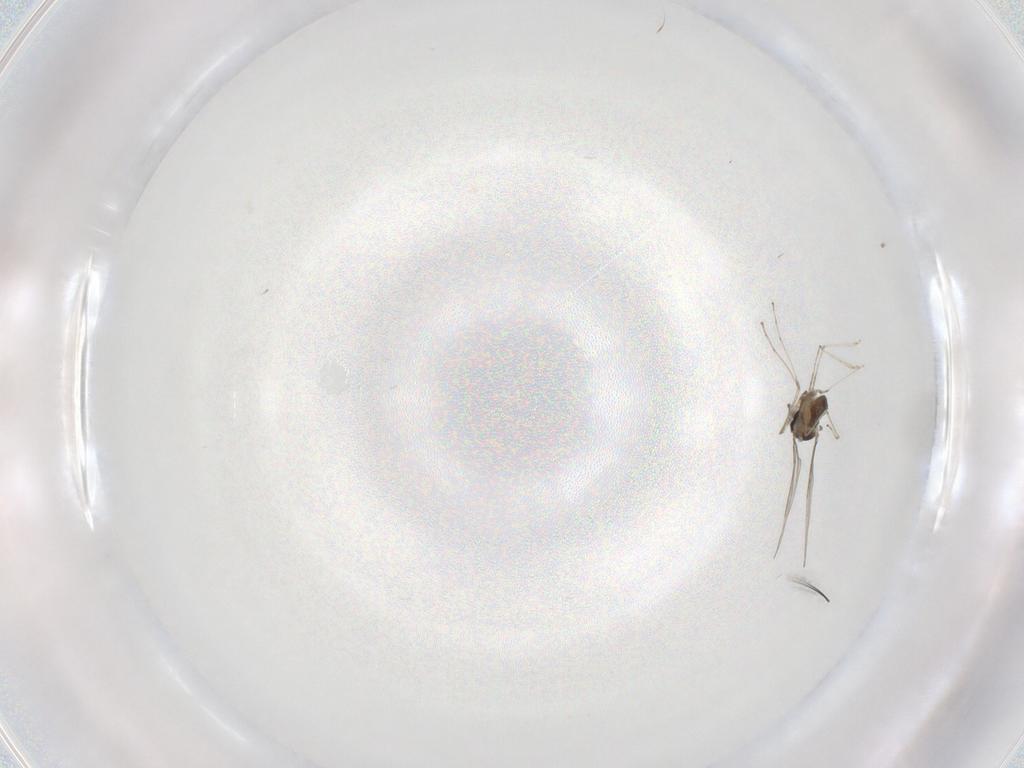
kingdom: Animalia
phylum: Arthropoda
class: Insecta
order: Diptera
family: Cecidomyiidae
